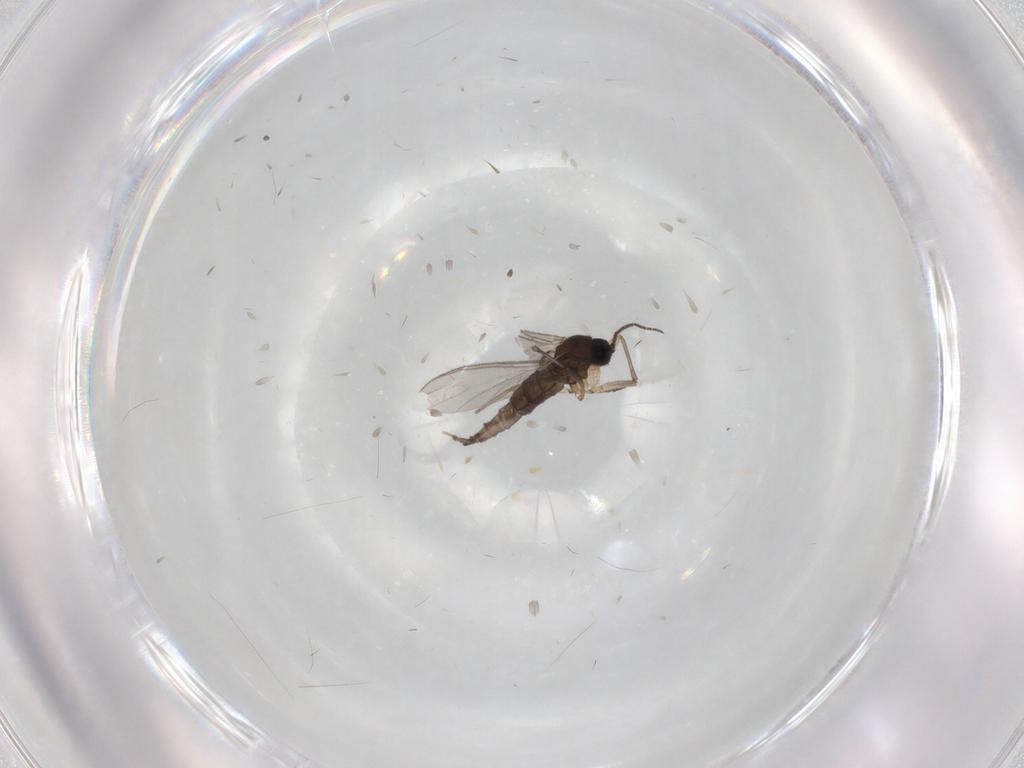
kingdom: Animalia
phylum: Arthropoda
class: Insecta
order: Diptera
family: Sciaridae
